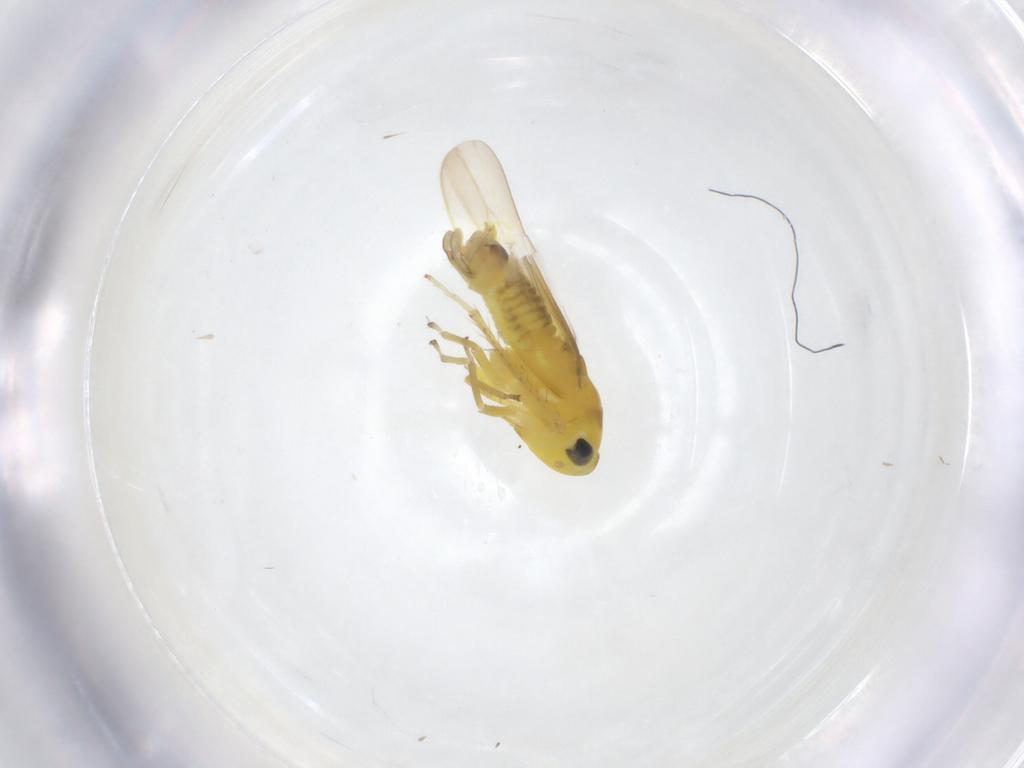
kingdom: Animalia
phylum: Arthropoda
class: Insecta
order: Hemiptera
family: Cicadellidae
